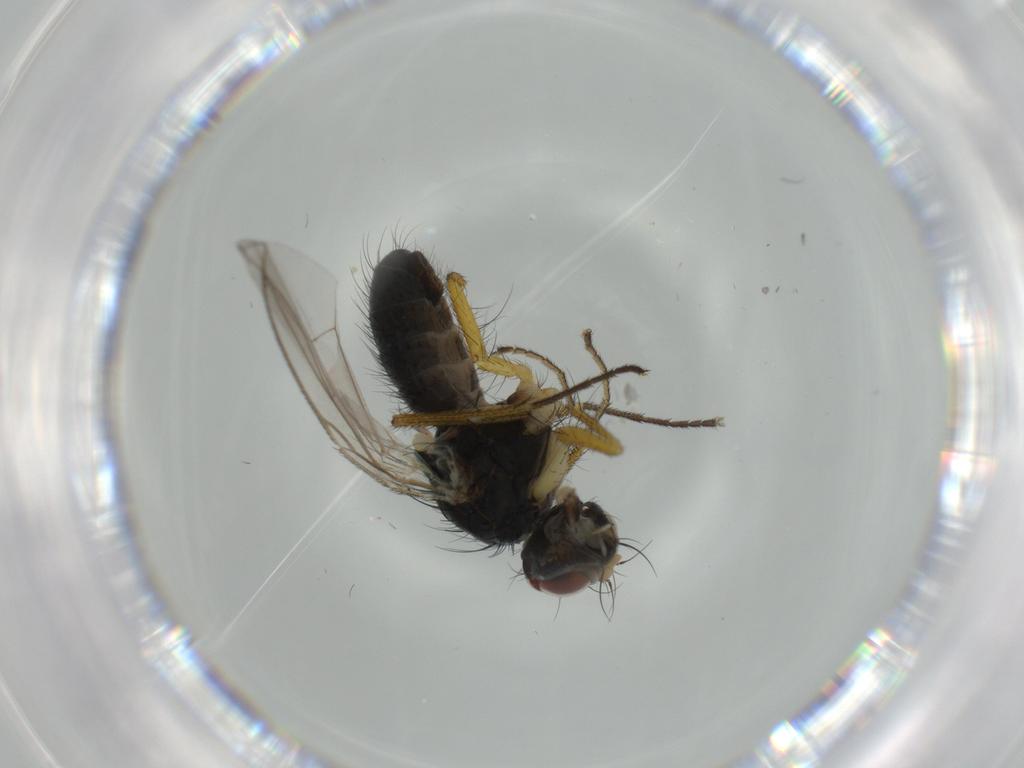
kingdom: Animalia
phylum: Arthropoda
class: Insecta
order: Diptera
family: Muscidae
